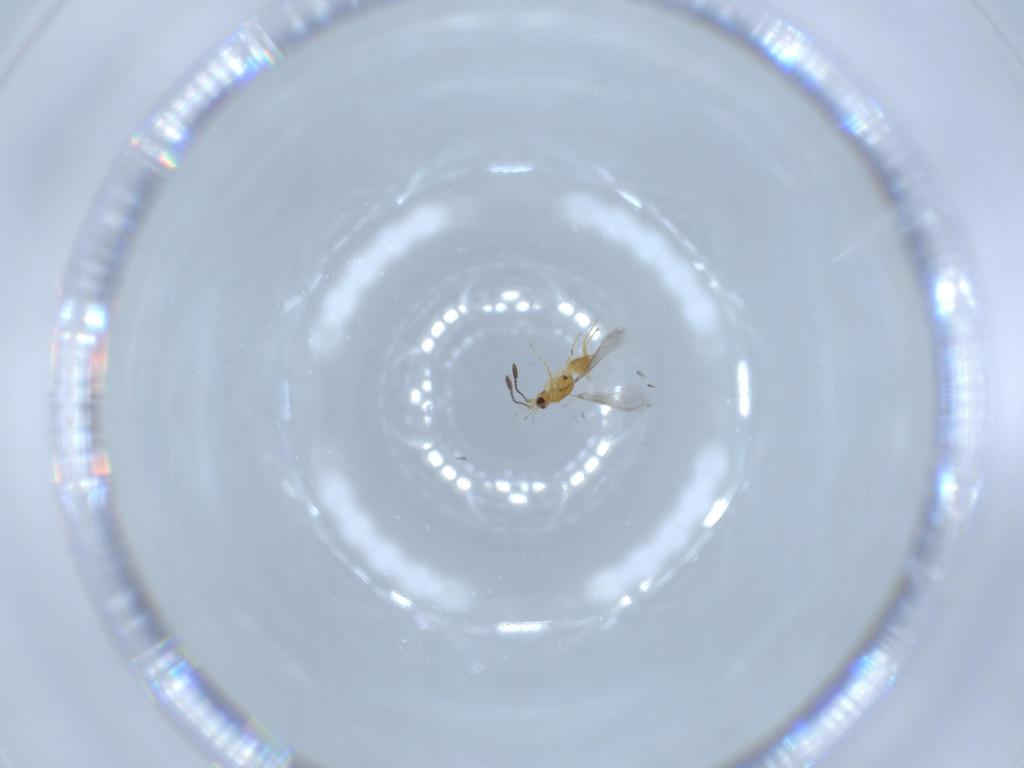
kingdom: Animalia
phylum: Arthropoda
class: Insecta
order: Hymenoptera
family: Mymaridae
